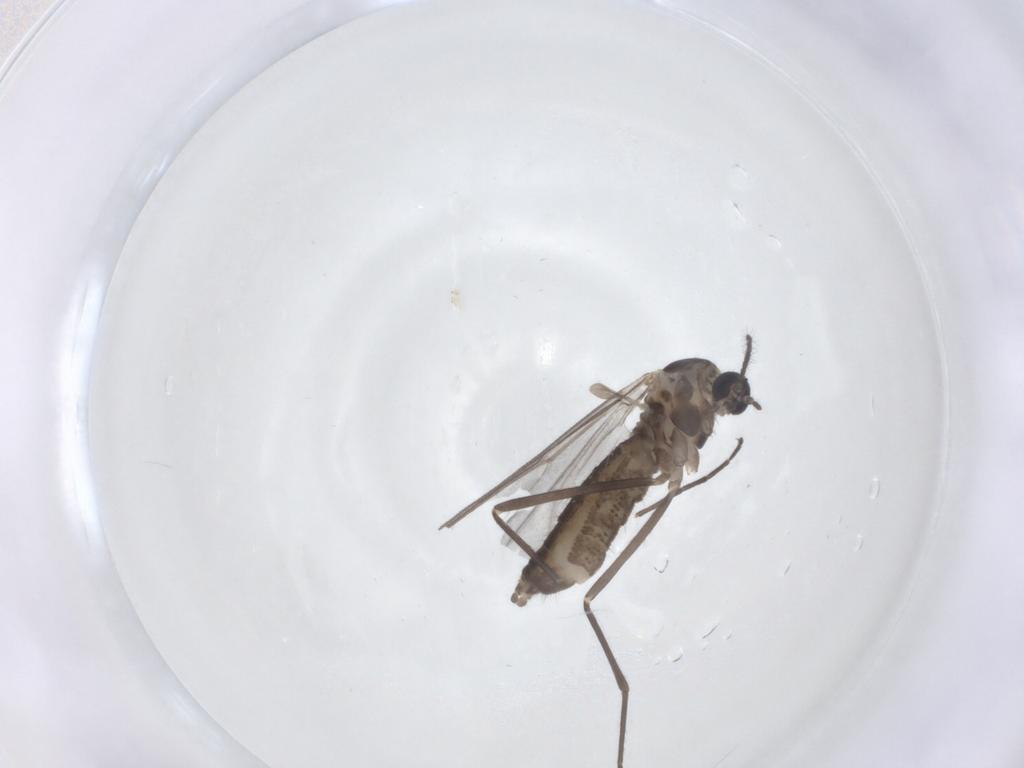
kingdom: Animalia
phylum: Arthropoda
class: Insecta
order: Diptera
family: Cecidomyiidae
